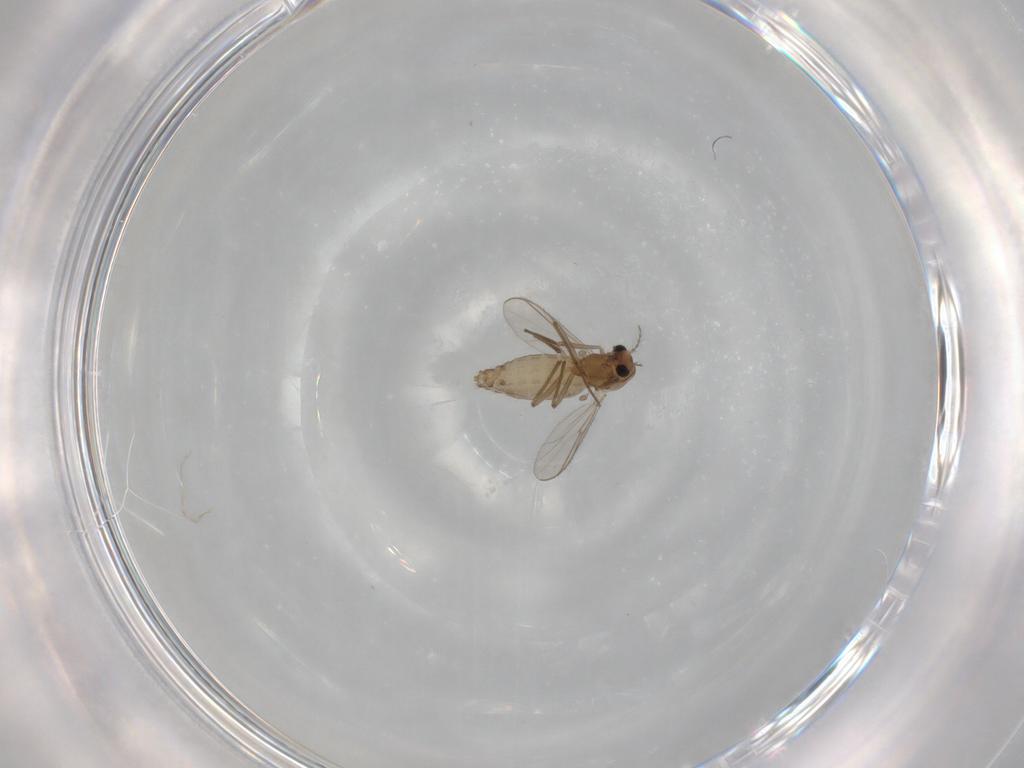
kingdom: Animalia
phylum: Arthropoda
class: Insecta
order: Diptera
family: Chironomidae
